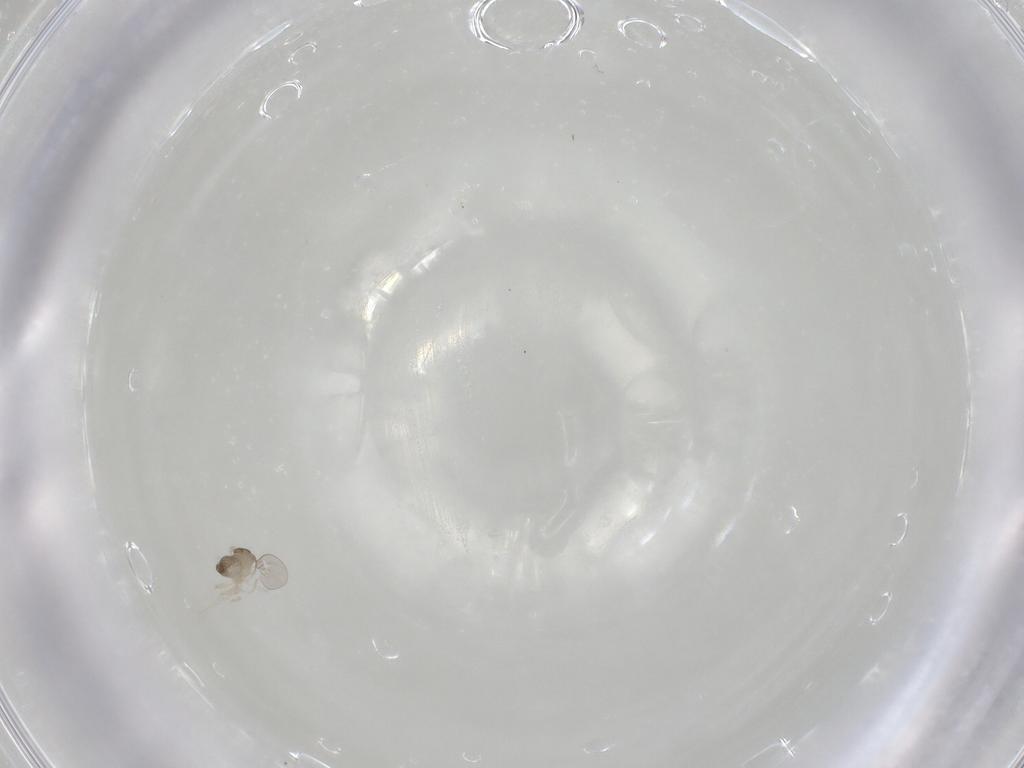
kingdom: Animalia
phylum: Arthropoda
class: Insecta
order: Diptera
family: Cecidomyiidae
